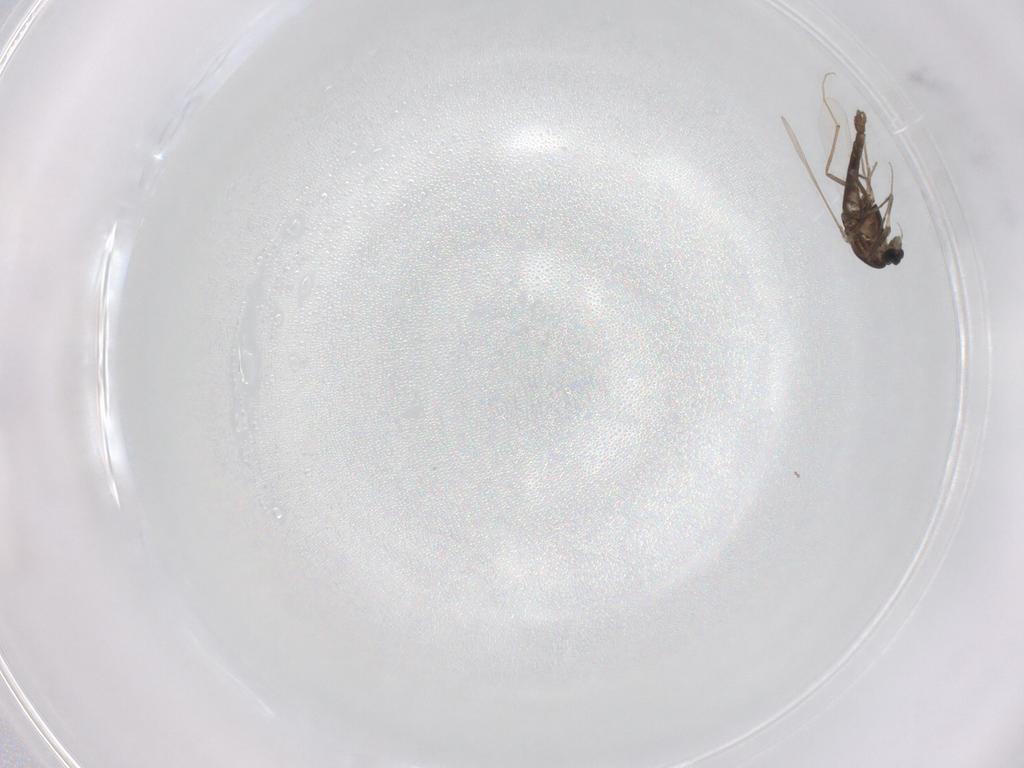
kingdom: Animalia
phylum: Arthropoda
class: Insecta
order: Diptera
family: Chironomidae
